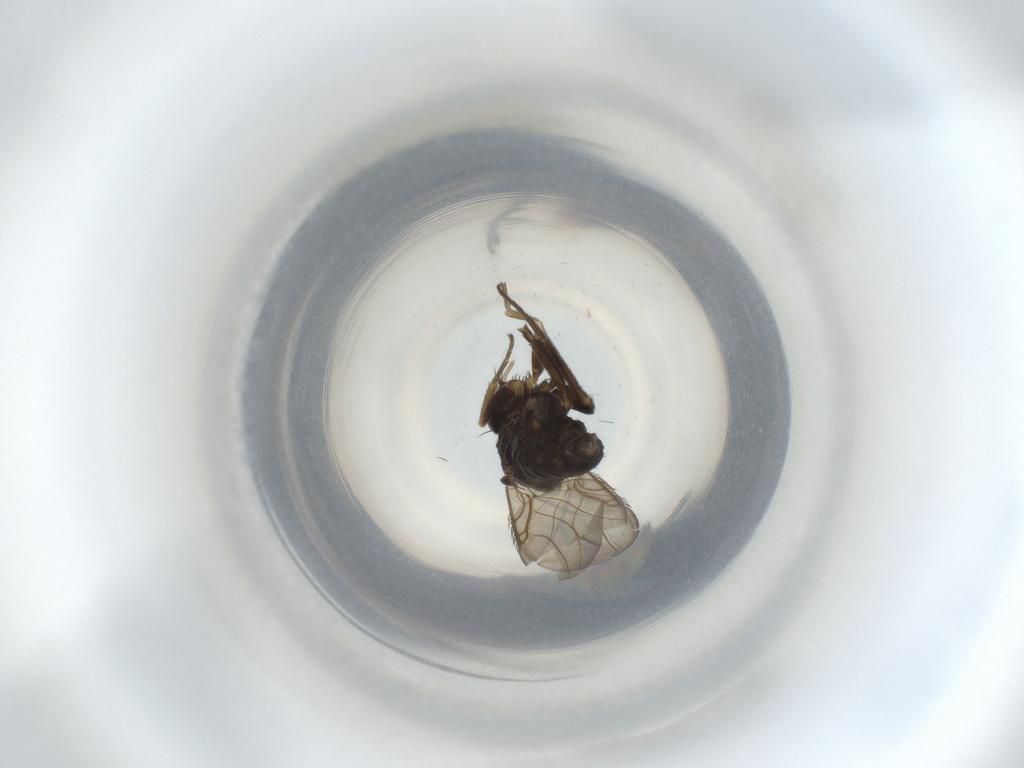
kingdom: Animalia
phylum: Arthropoda
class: Insecta
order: Diptera
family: Phoridae
